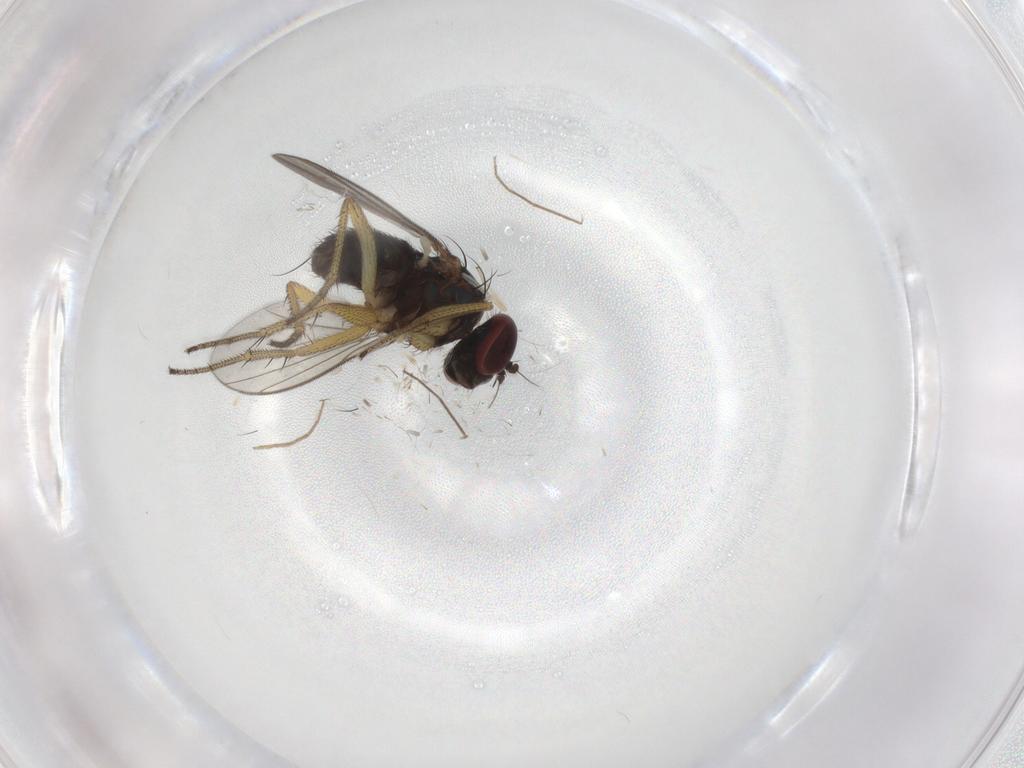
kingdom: Animalia
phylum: Arthropoda
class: Insecta
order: Diptera
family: Dolichopodidae
